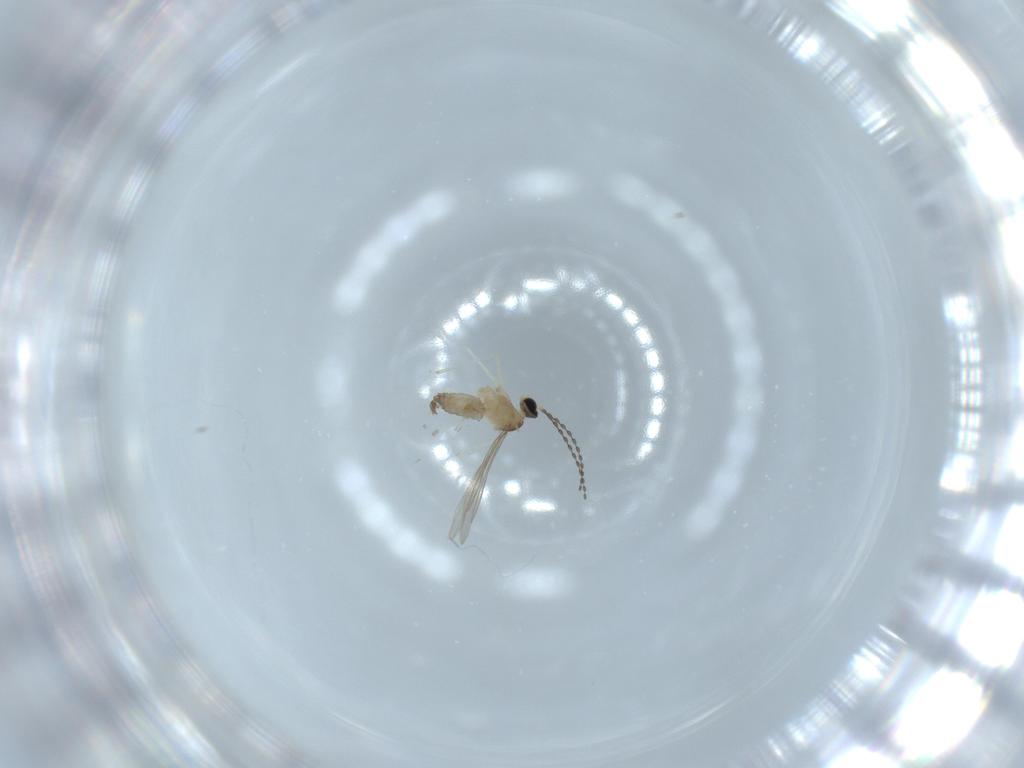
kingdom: Animalia
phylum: Arthropoda
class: Insecta
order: Diptera
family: Cecidomyiidae
